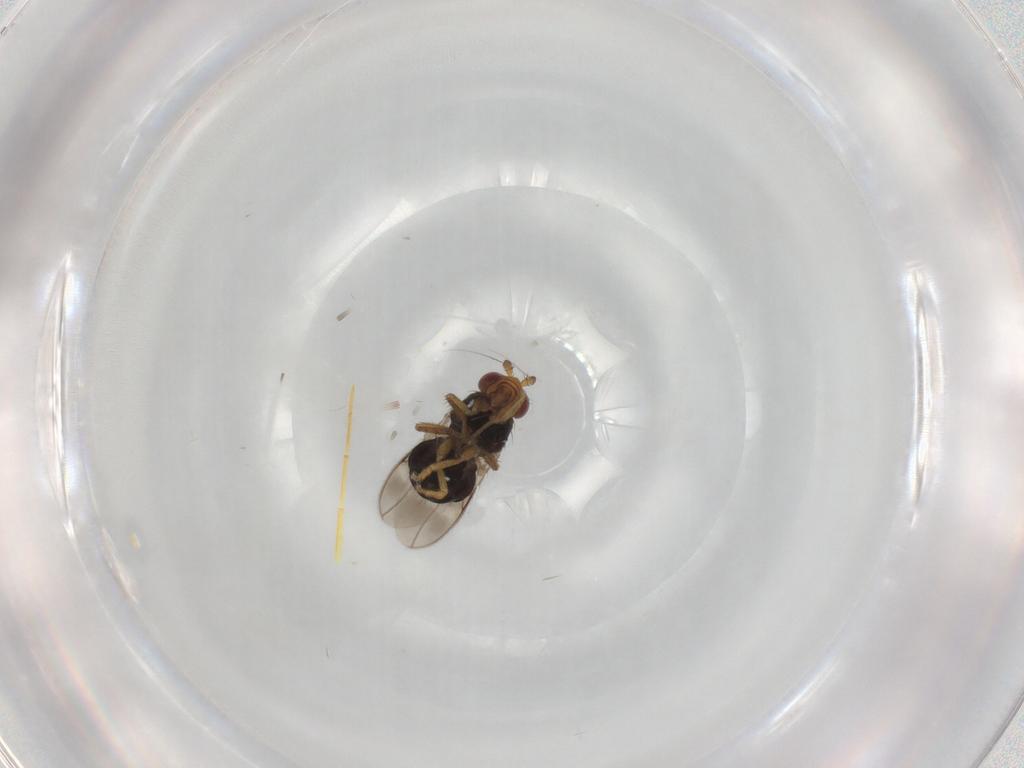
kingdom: Animalia
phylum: Arthropoda
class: Insecta
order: Diptera
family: Sphaeroceridae
